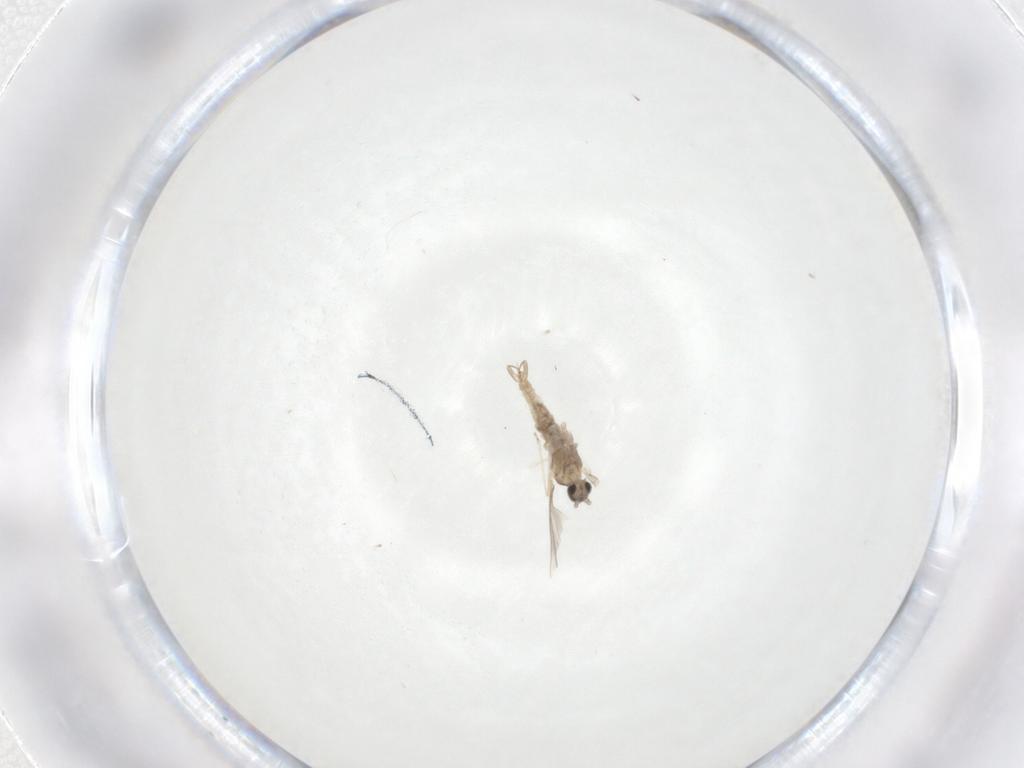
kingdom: Animalia
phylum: Arthropoda
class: Insecta
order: Diptera
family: Cecidomyiidae
